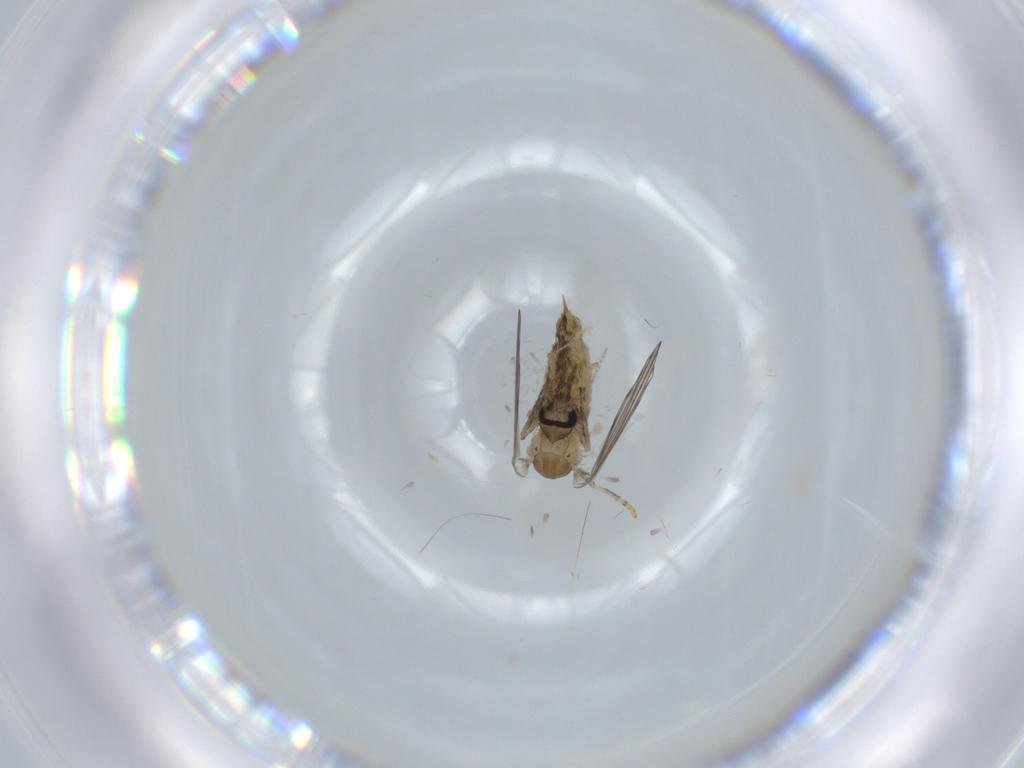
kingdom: Animalia
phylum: Arthropoda
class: Insecta
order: Diptera
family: Psychodidae
